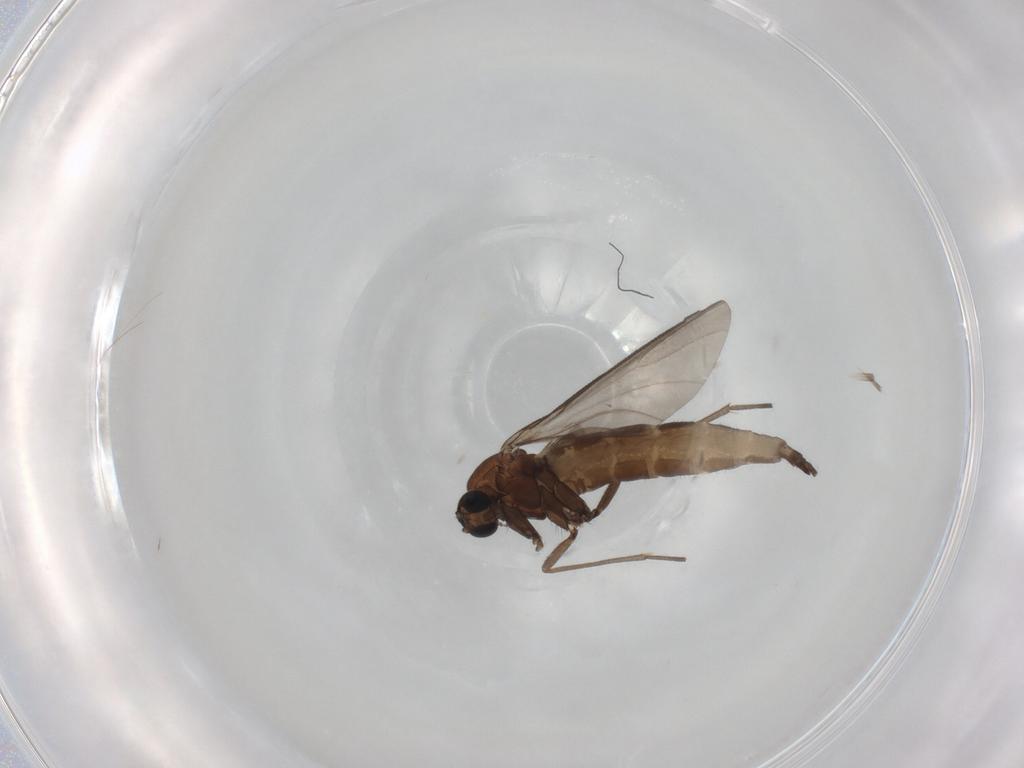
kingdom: Animalia
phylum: Arthropoda
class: Insecta
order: Diptera
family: Sciaridae
